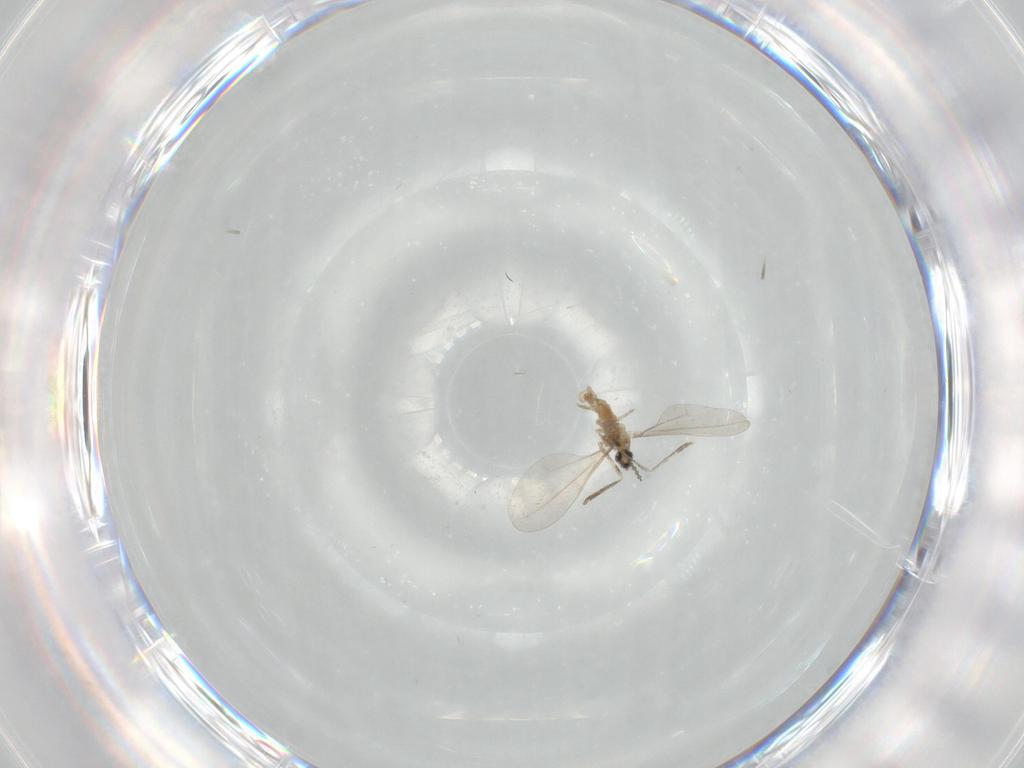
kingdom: Animalia
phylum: Arthropoda
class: Insecta
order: Diptera
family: Cecidomyiidae
